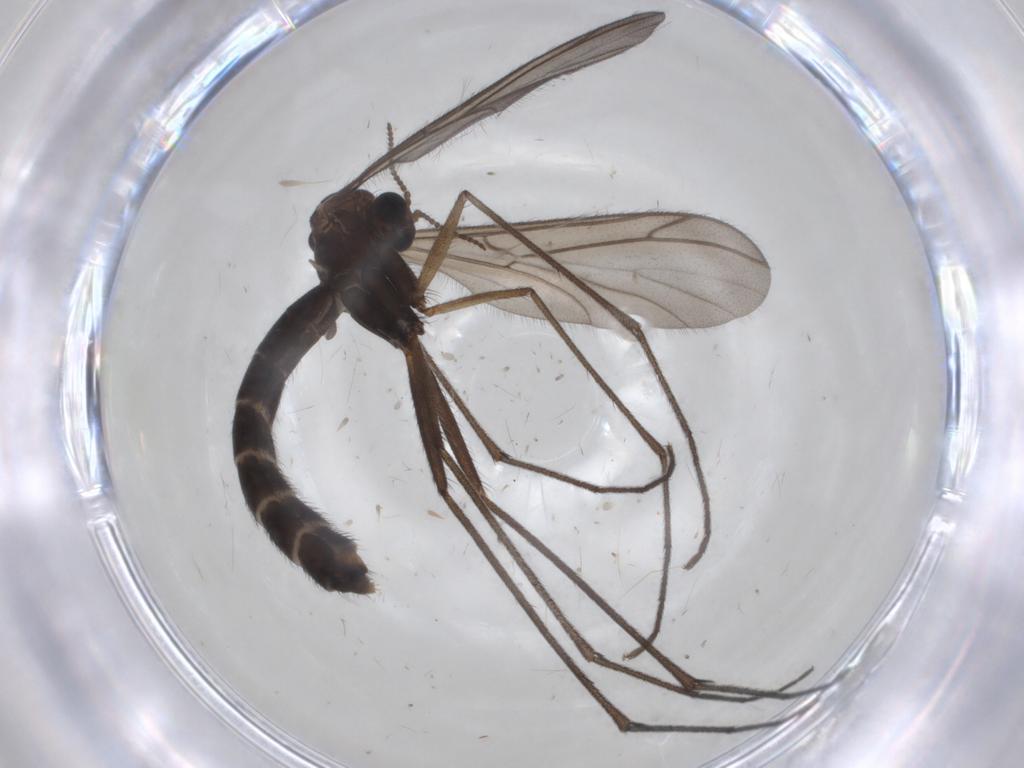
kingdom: Animalia
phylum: Arthropoda
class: Insecta
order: Diptera
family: Ditomyiidae
